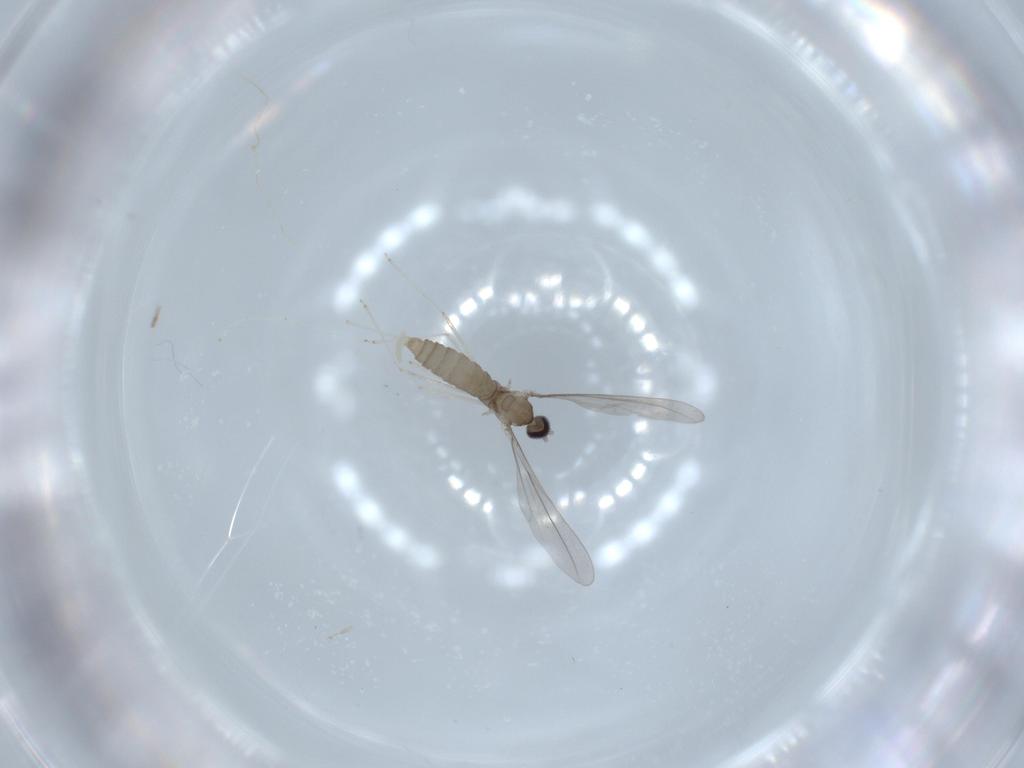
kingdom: Animalia
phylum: Arthropoda
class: Insecta
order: Diptera
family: Cecidomyiidae
